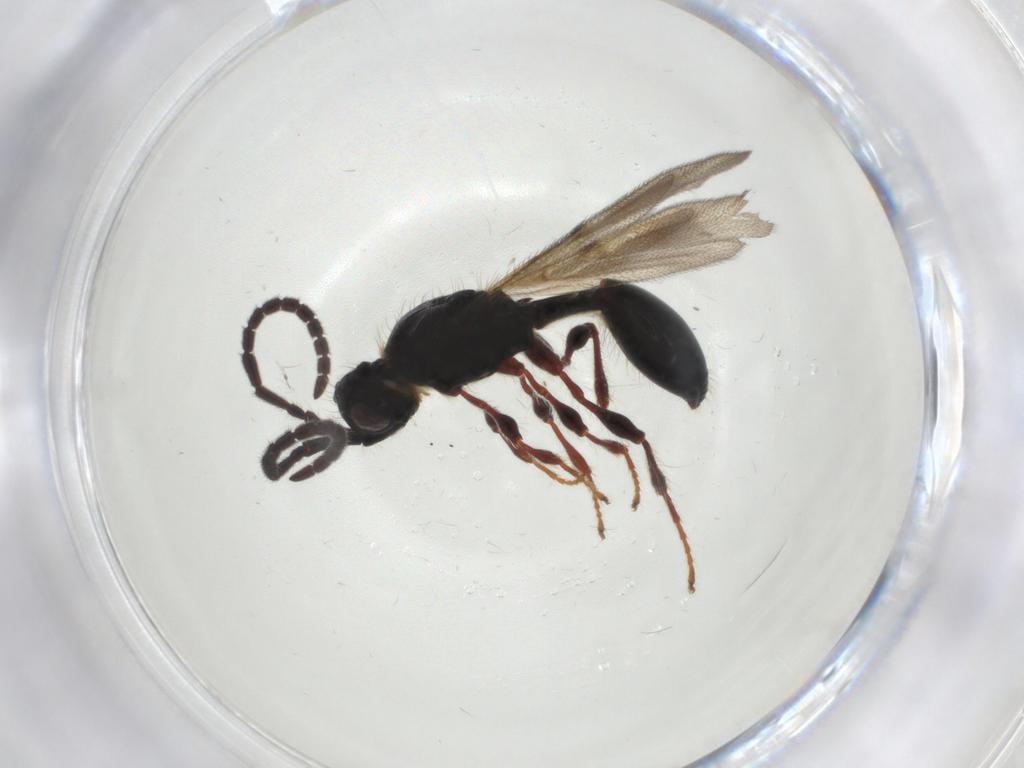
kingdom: Animalia
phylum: Arthropoda
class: Insecta
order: Hymenoptera
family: Diapriidae
